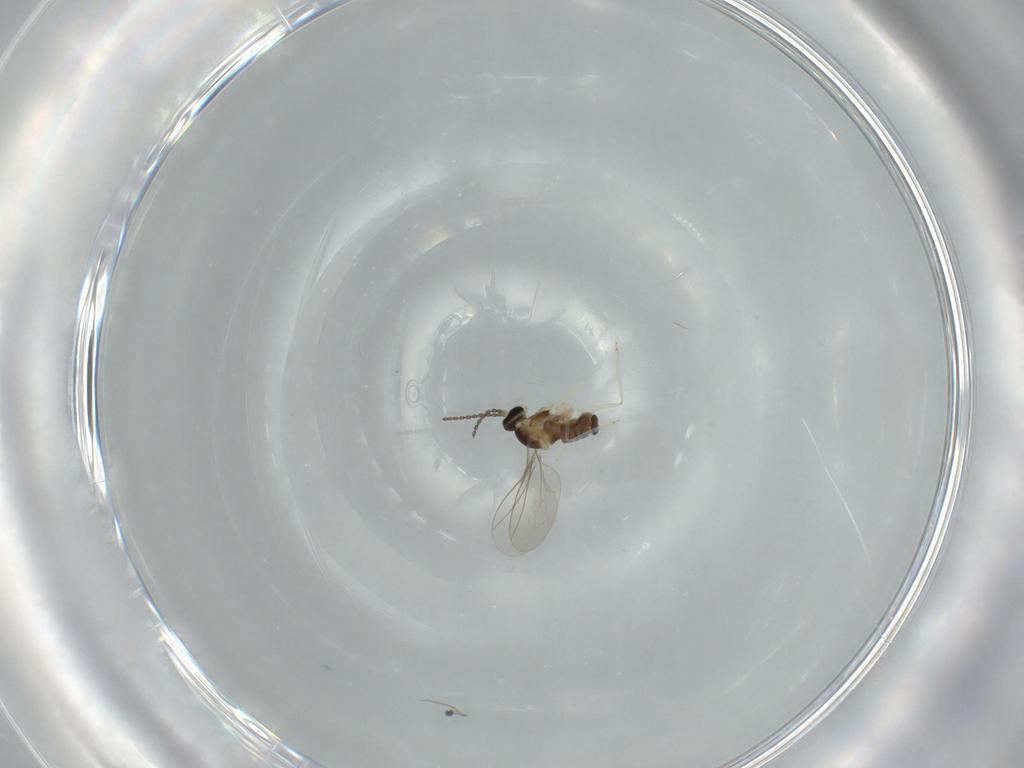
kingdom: Animalia
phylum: Arthropoda
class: Insecta
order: Diptera
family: Cecidomyiidae
